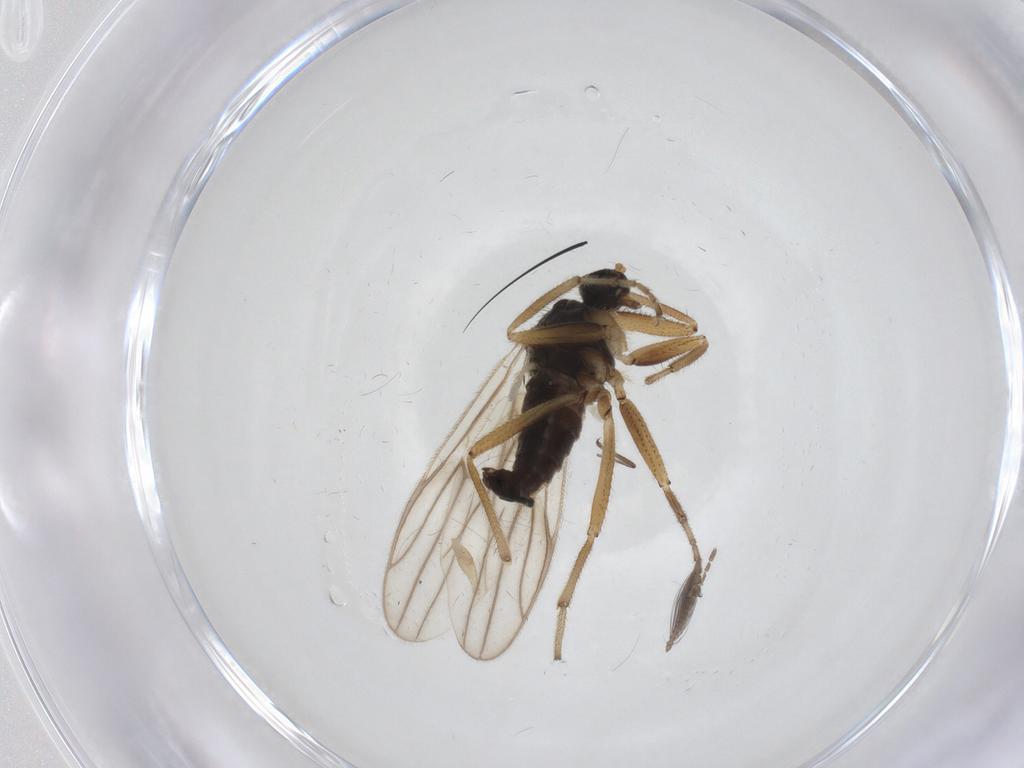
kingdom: Animalia
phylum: Arthropoda
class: Insecta
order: Diptera
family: Hybotidae
